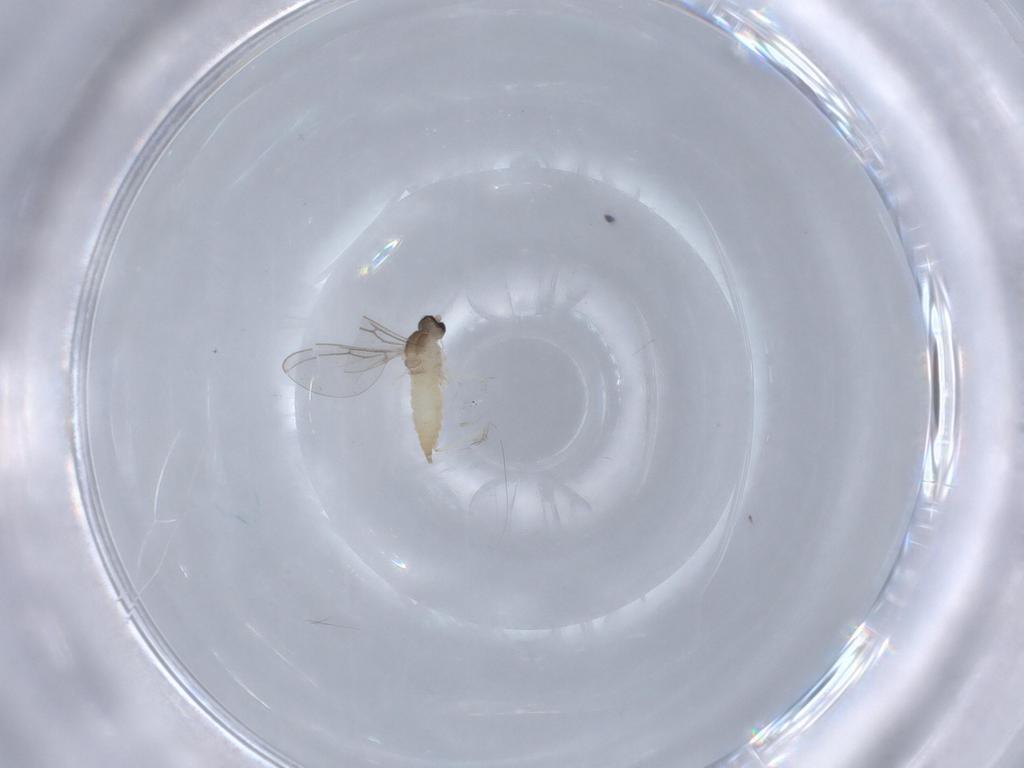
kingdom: Animalia
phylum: Arthropoda
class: Insecta
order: Diptera
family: Cecidomyiidae
